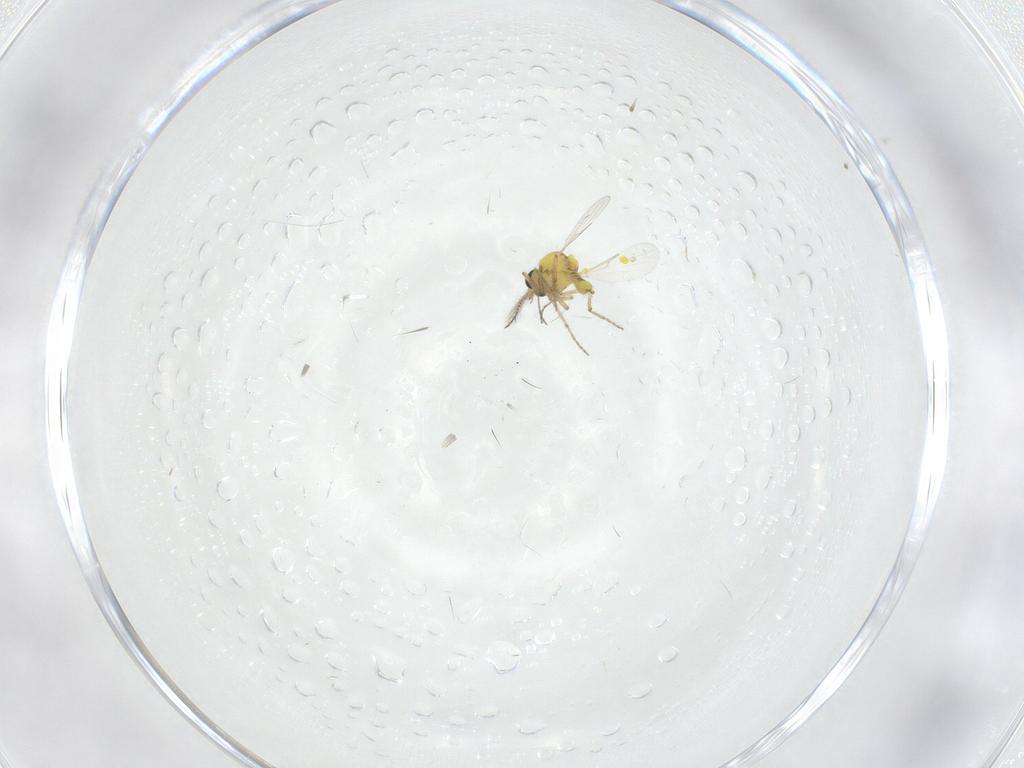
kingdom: Animalia
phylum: Arthropoda
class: Insecta
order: Diptera
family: Ceratopogonidae
